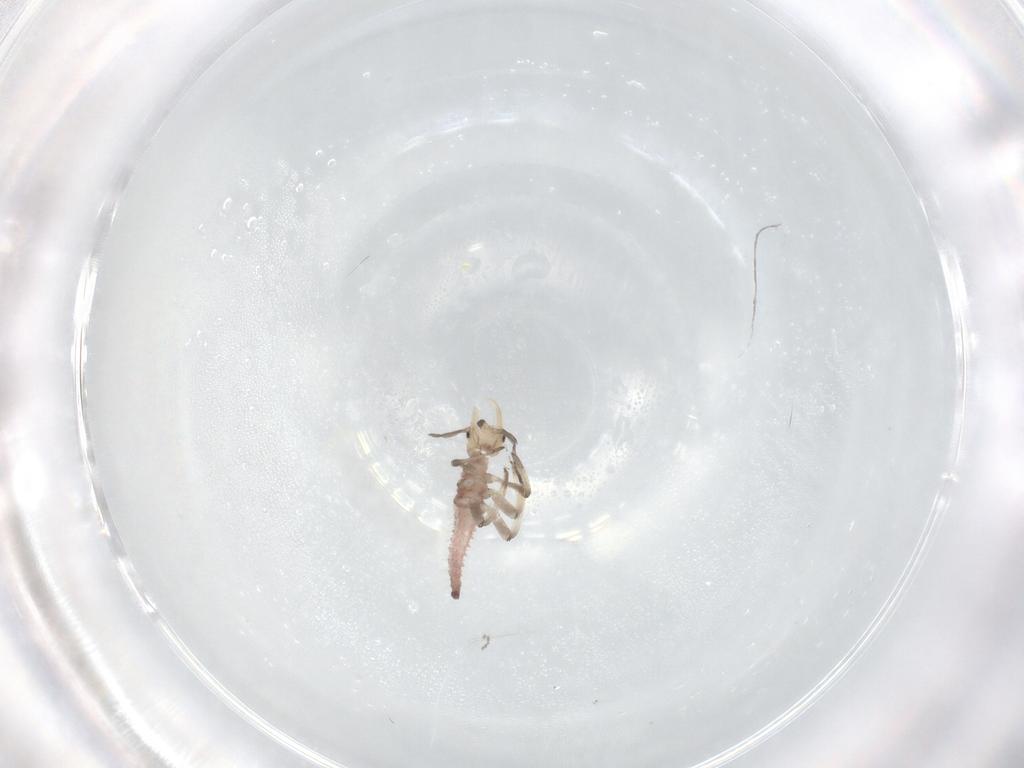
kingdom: Animalia
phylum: Arthropoda
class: Insecta
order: Neuroptera
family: Hemerobiidae
